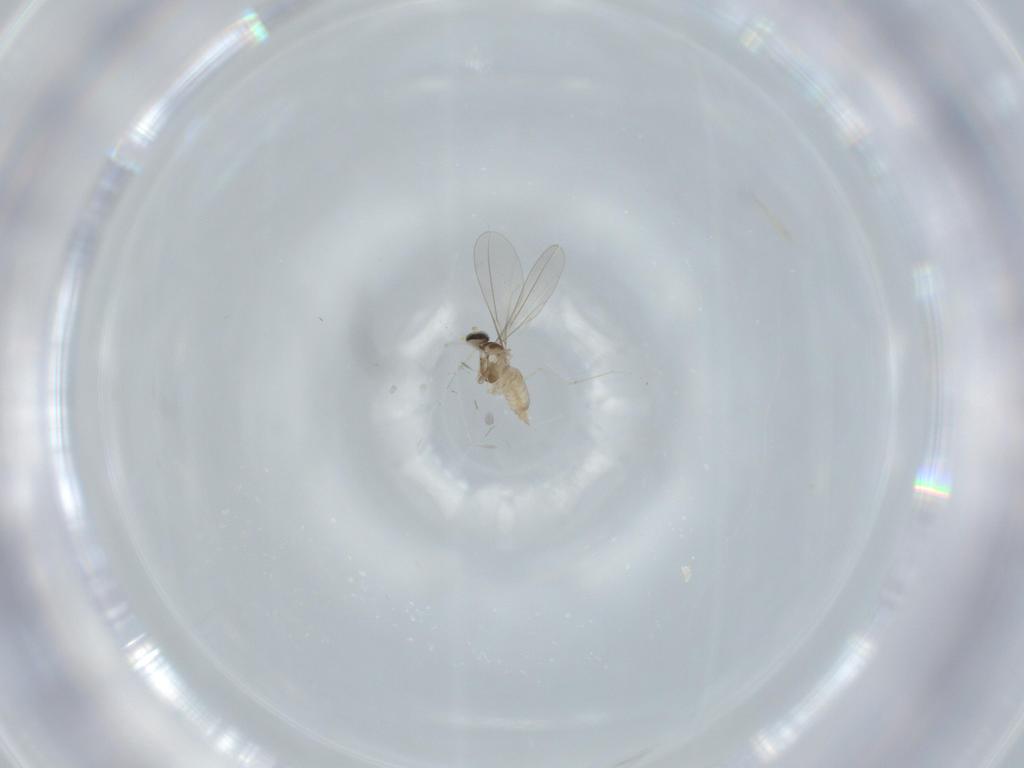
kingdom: Animalia
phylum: Arthropoda
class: Insecta
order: Diptera
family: Cecidomyiidae
